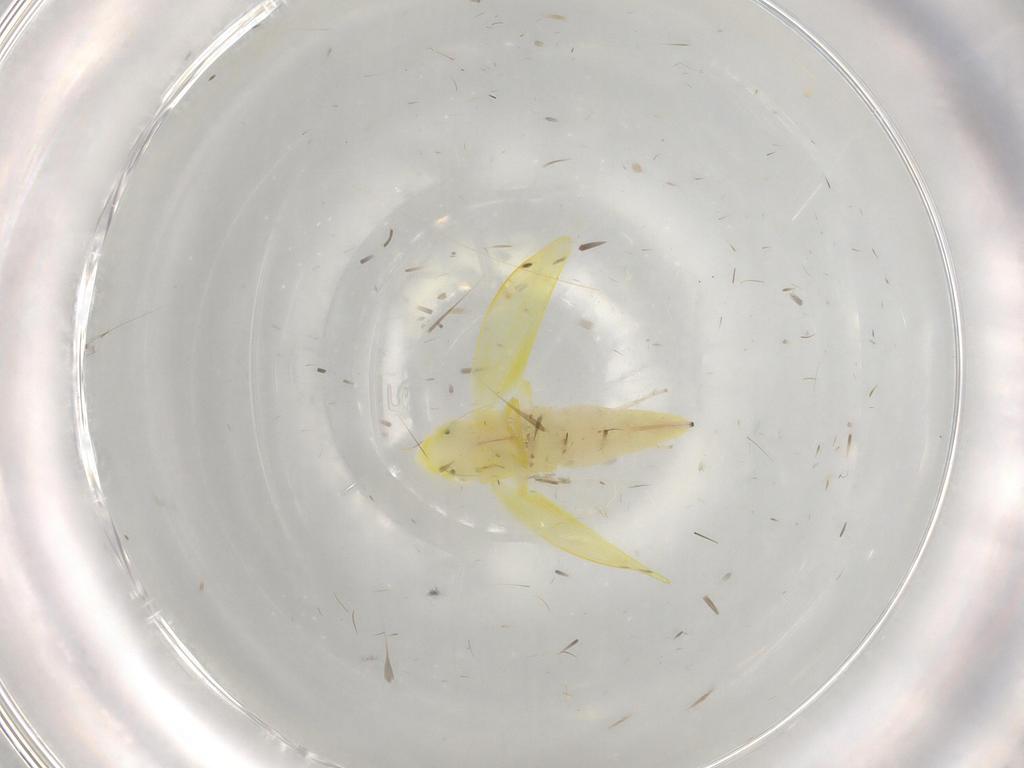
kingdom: Animalia
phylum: Arthropoda
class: Insecta
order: Hemiptera
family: Cicadellidae
